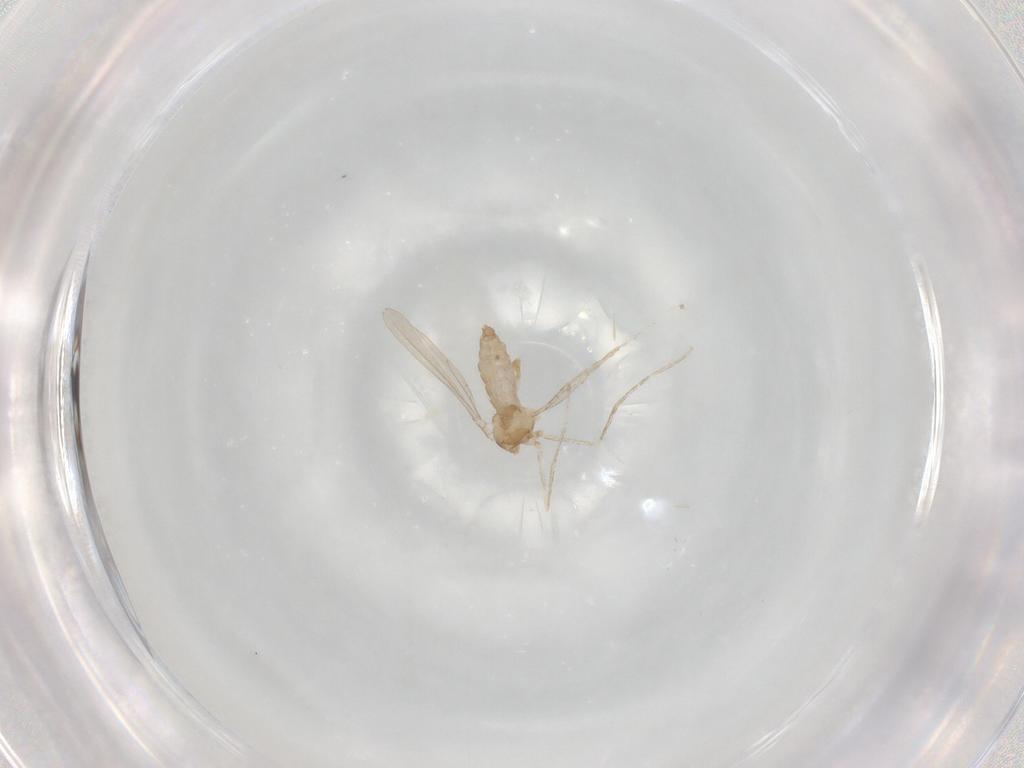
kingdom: Animalia
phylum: Arthropoda
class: Insecta
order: Diptera
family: Cecidomyiidae
